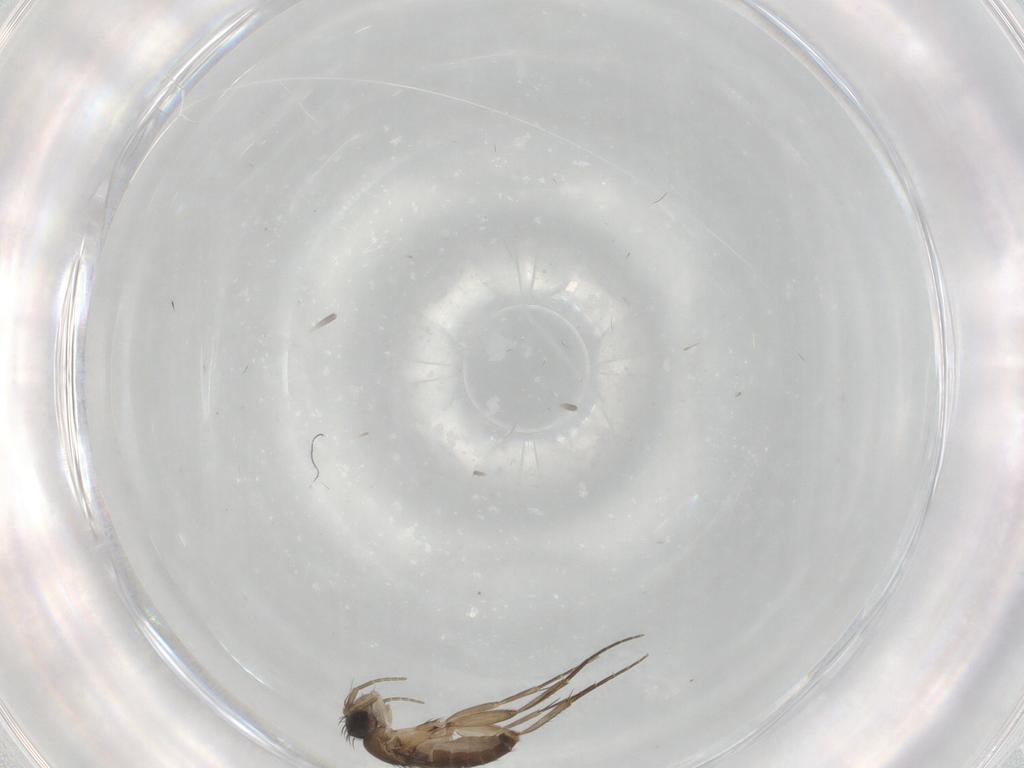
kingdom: Animalia
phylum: Arthropoda
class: Insecta
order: Diptera
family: Phoridae
